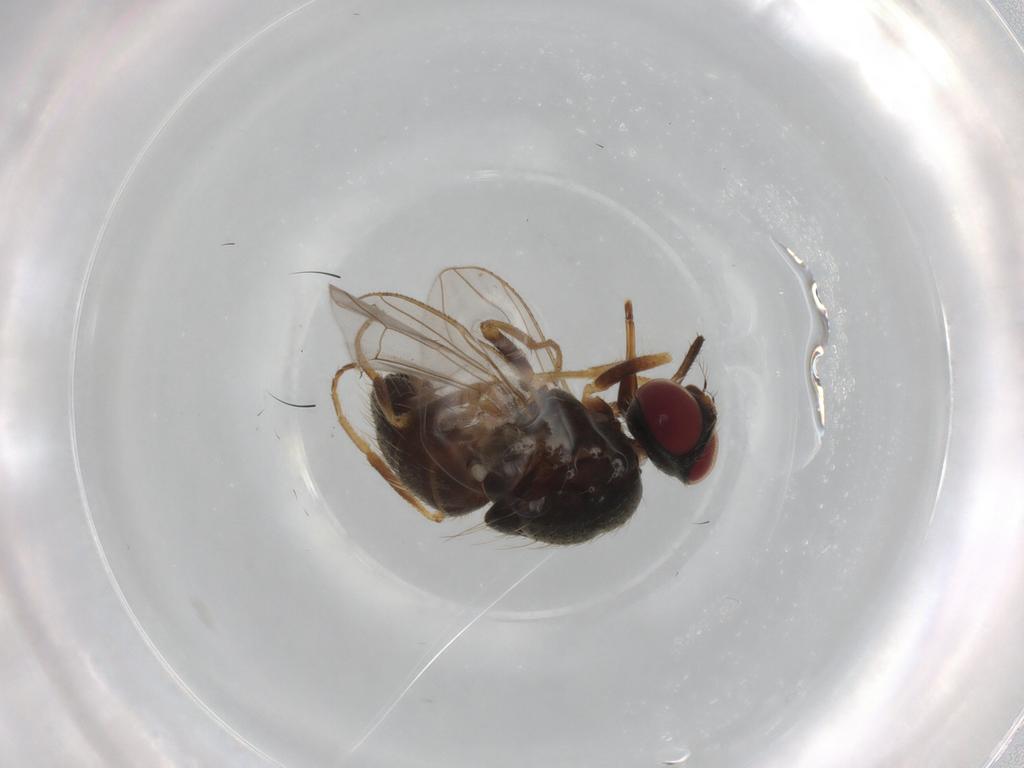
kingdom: Animalia
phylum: Arthropoda
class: Insecta
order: Diptera
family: Muscidae
